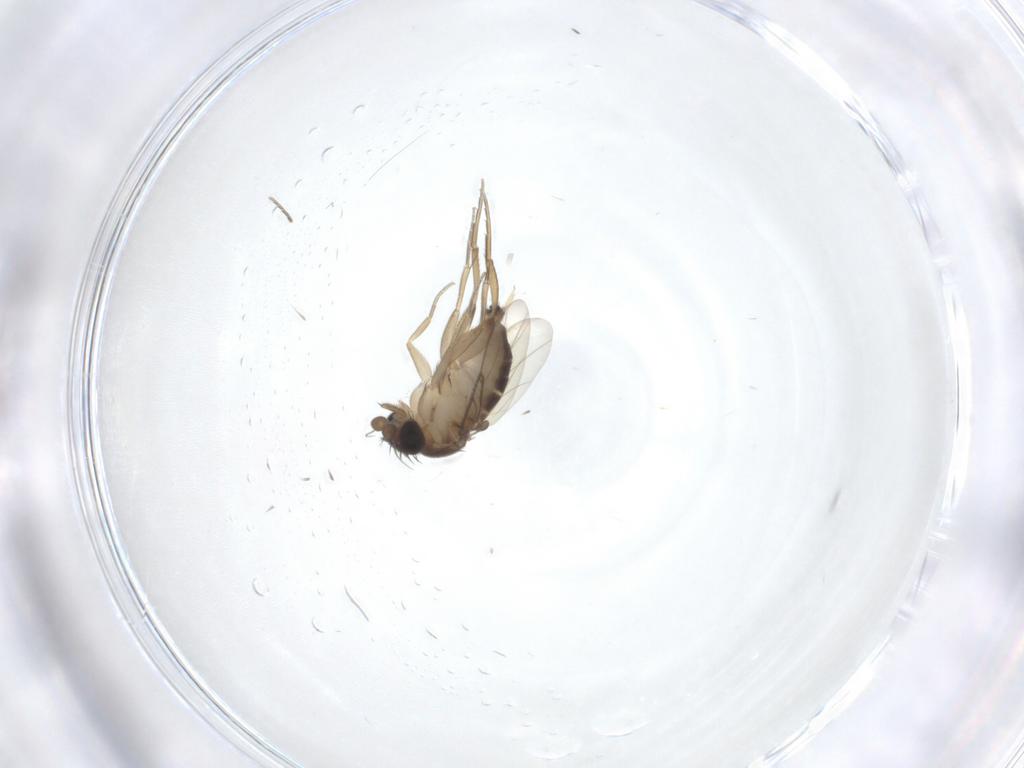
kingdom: Animalia
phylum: Arthropoda
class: Insecta
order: Diptera
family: Phoridae
